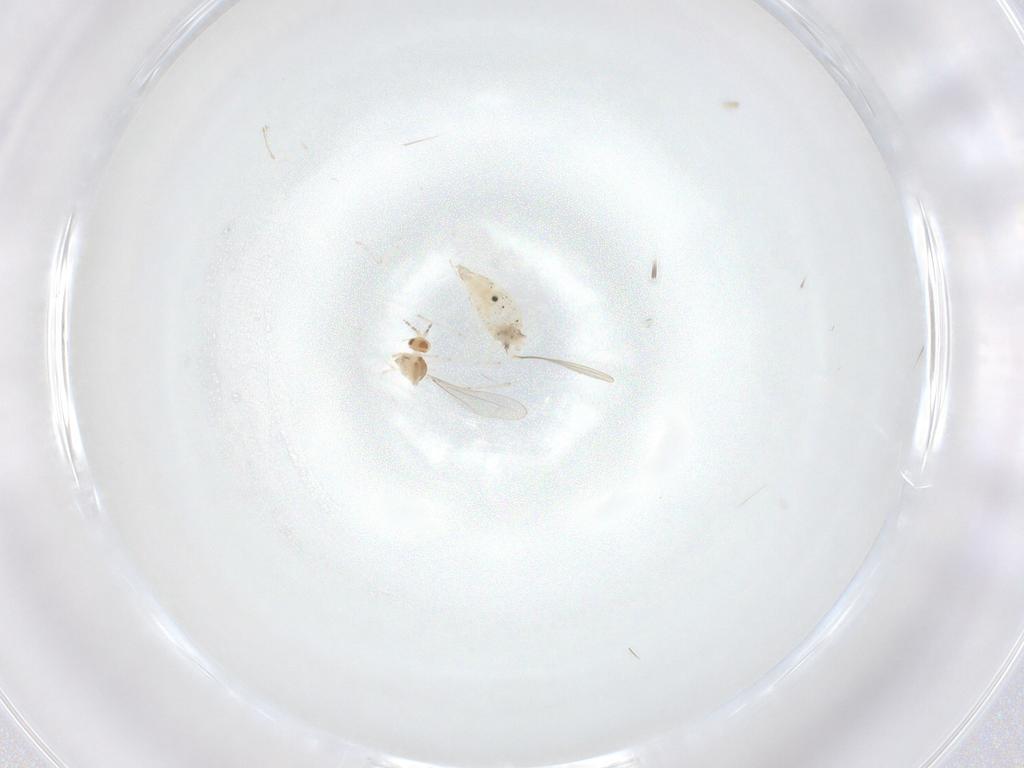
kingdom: Animalia
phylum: Arthropoda
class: Insecta
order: Diptera
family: Cecidomyiidae
